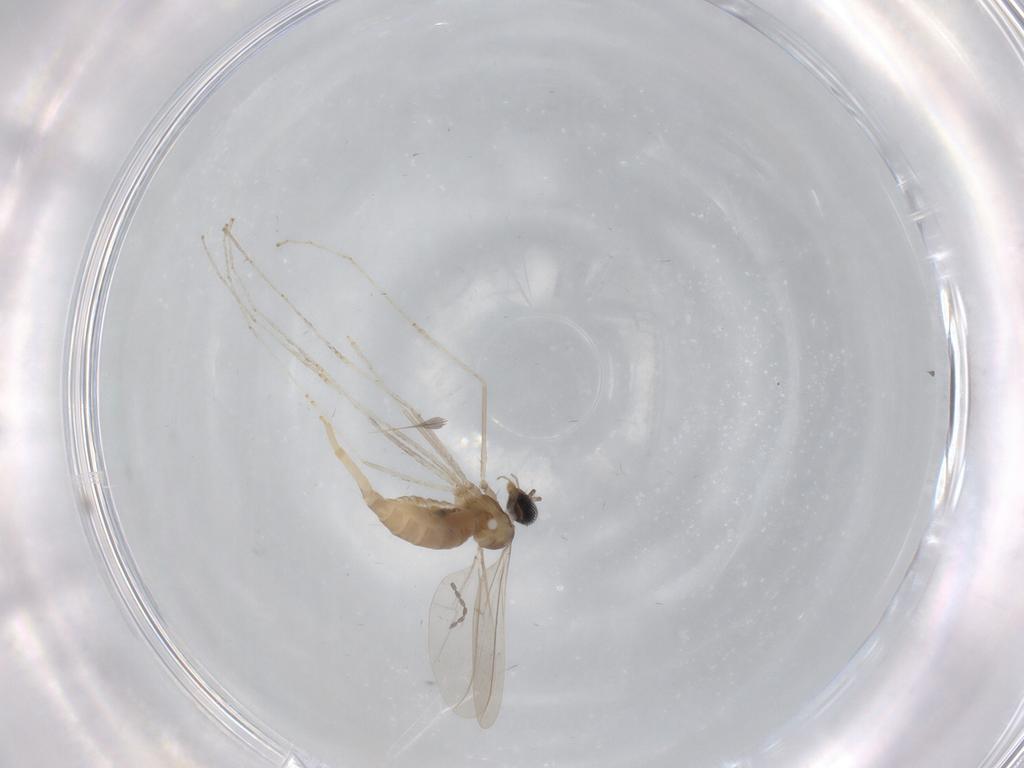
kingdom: Animalia
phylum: Arthropoda
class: Insecta
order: Diptera
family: Cecidomyiidae
